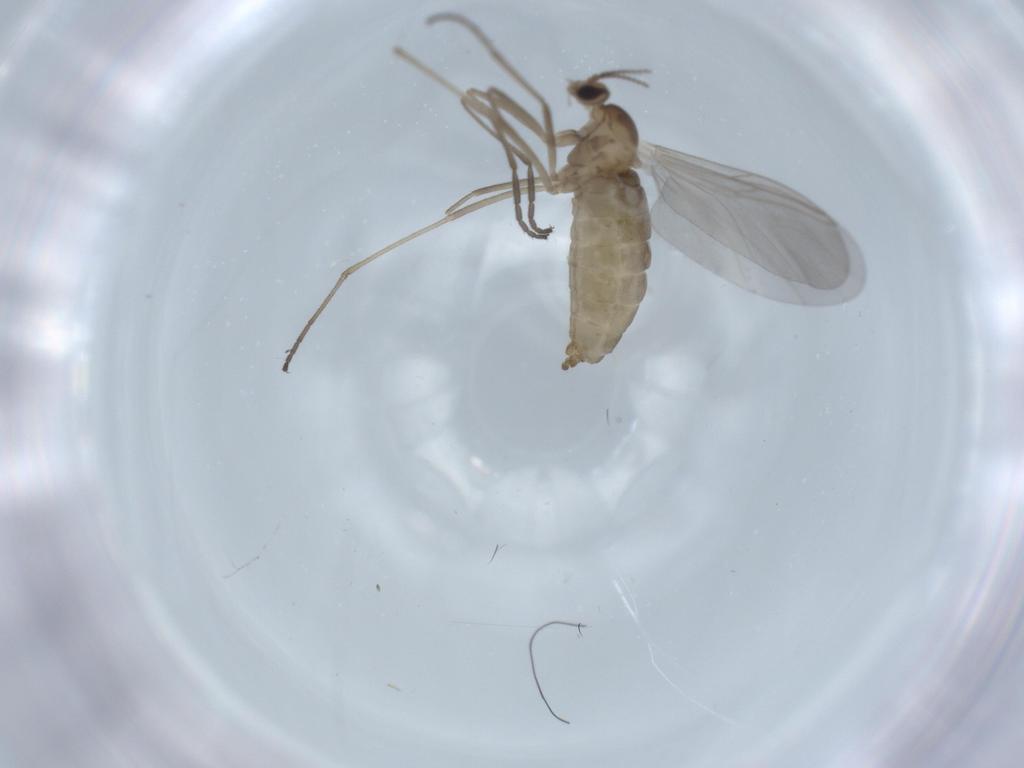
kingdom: Animalia
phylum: Arthropoda
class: Insecta
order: Diptera
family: Cecidomyiidae
